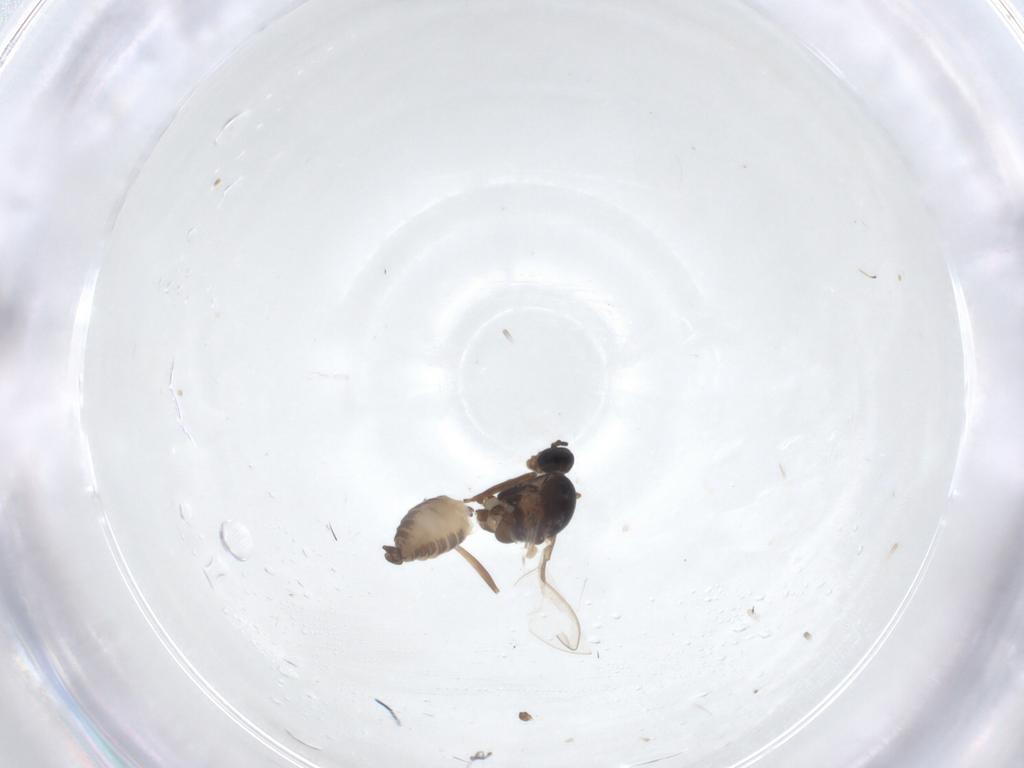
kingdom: Animalia
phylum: Arthropoda
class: Insecta
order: Diptera
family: Cecidomyiidae
